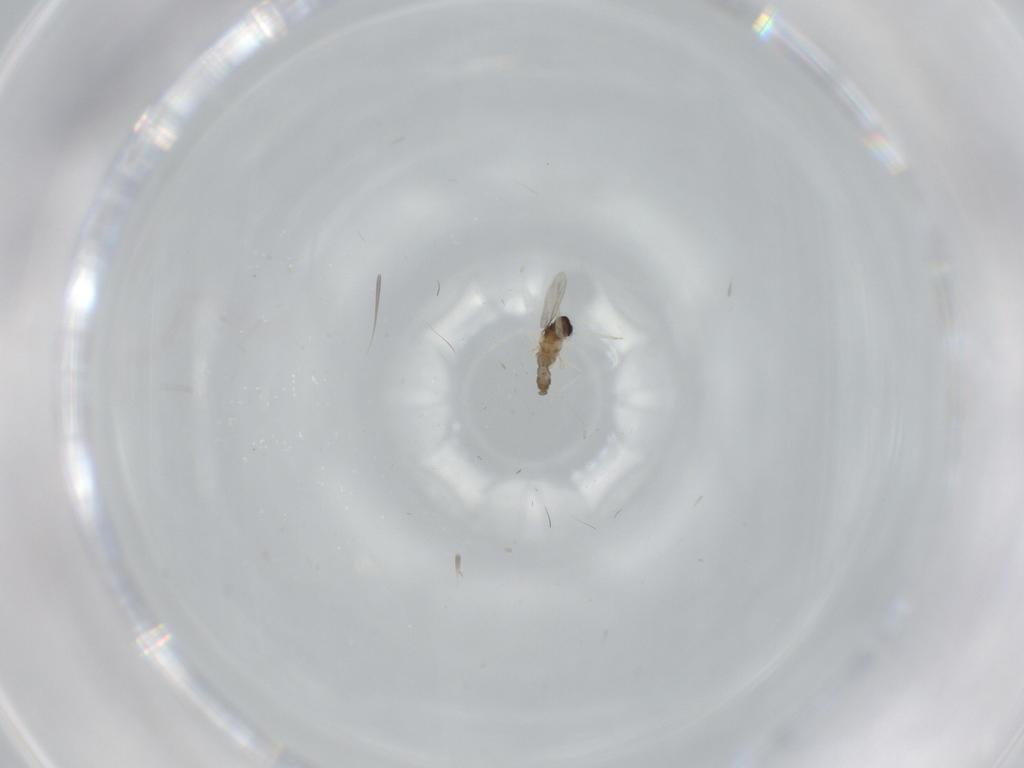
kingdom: Animalia
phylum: Arthropoda
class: Insecta
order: Diptera
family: Cecidomyiidae
